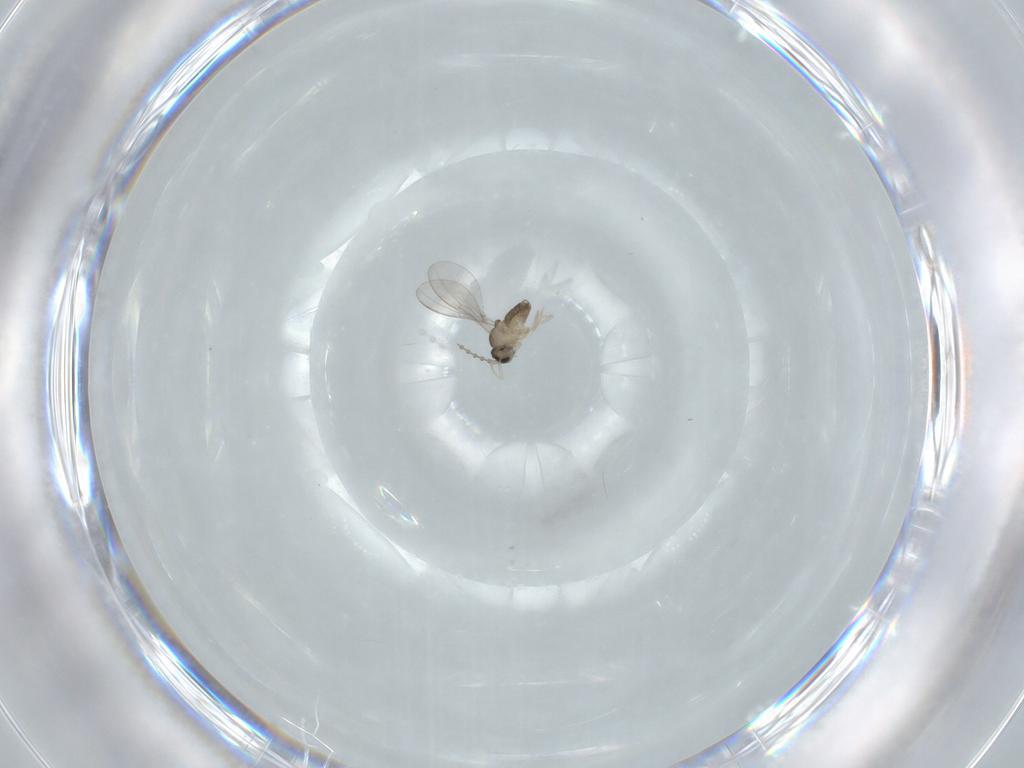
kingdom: Animalia
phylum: Arthropoda
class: Insecta
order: Diptera
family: Cecidomyiidae
